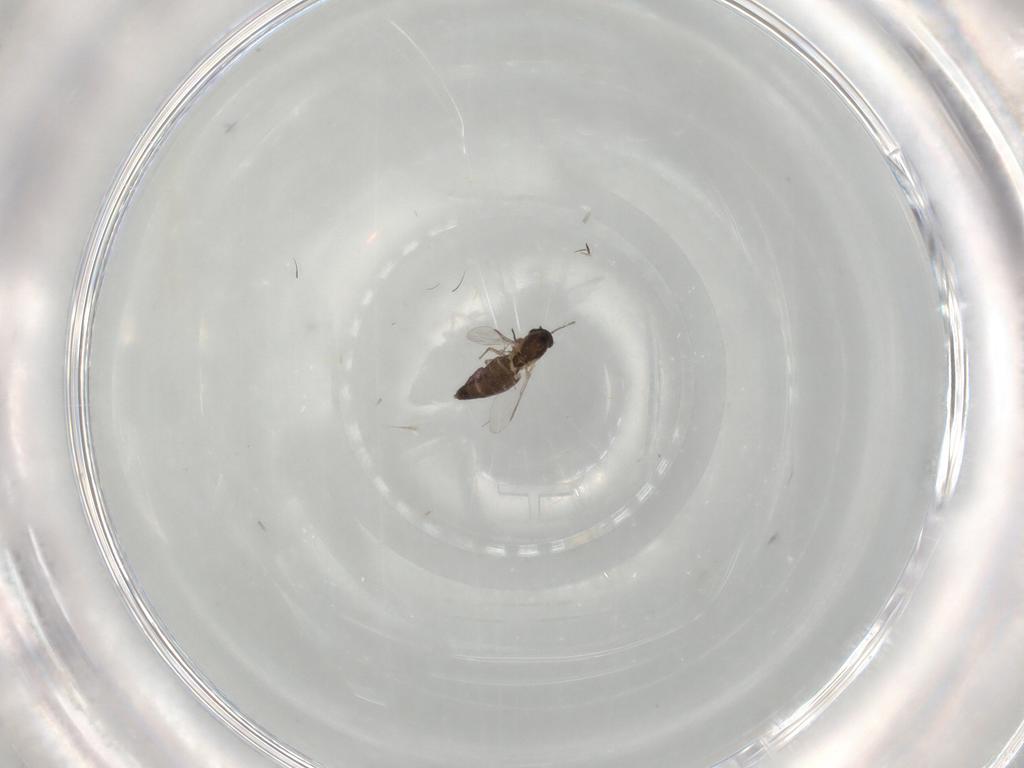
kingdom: Animalia
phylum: Arthropoda
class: Insecta
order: Diptera
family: Chironomidae
